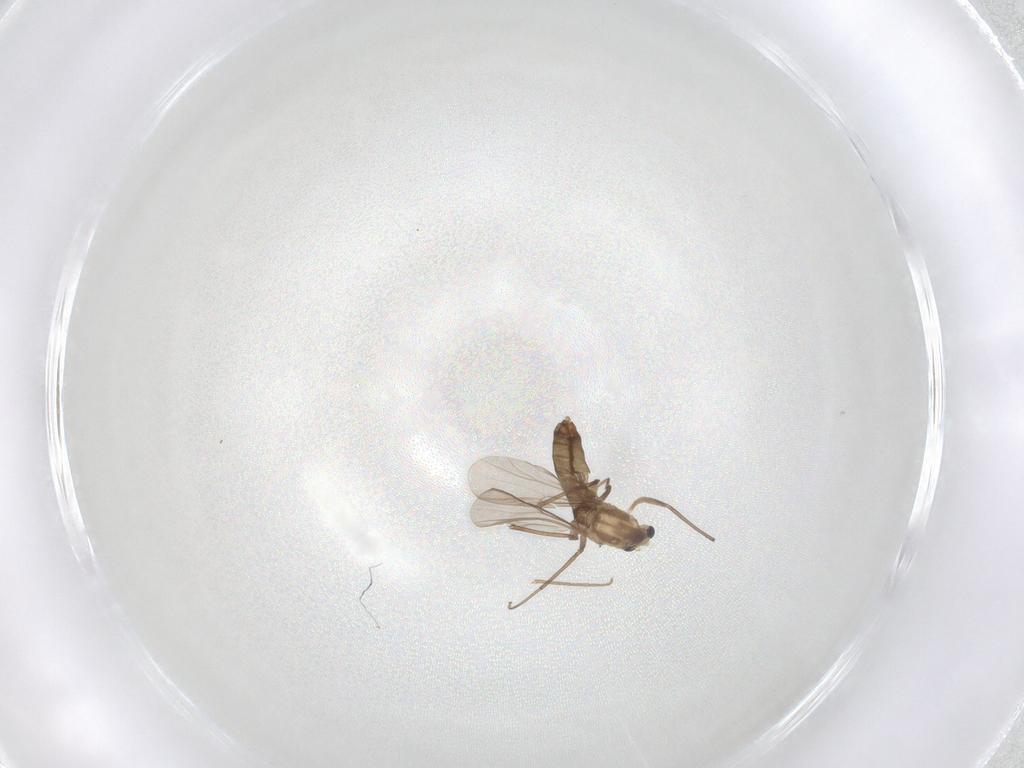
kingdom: Animalia
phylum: Arthropoda
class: Insecta
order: Diptera
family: Chironomidae
